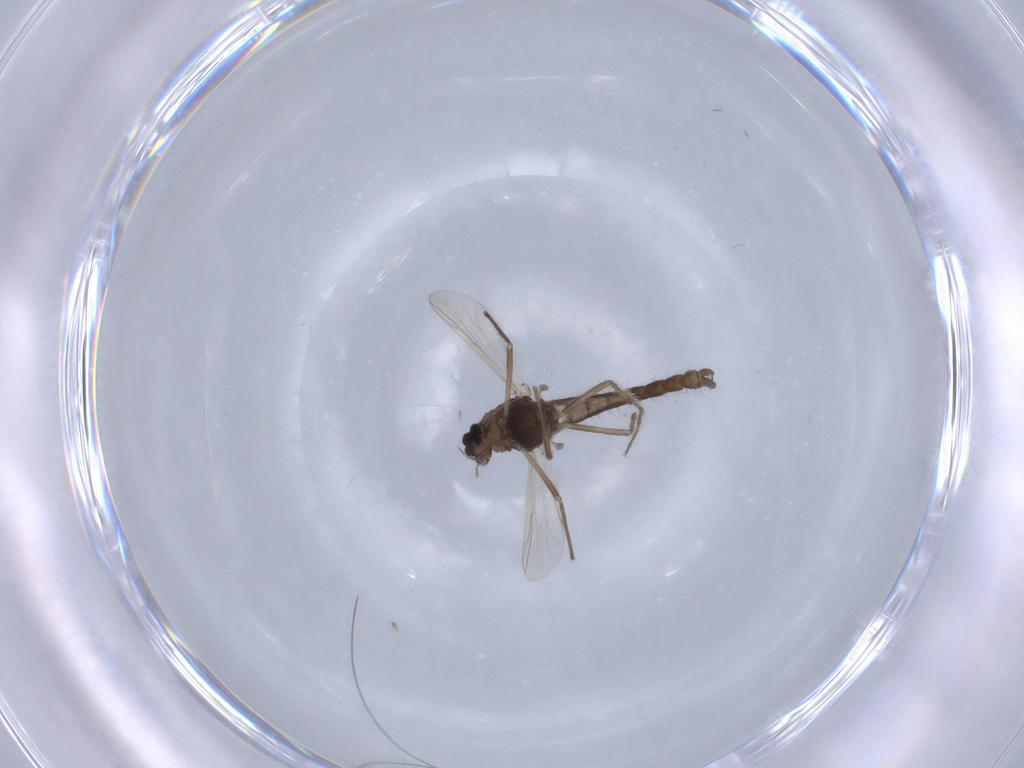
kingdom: Animalia
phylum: Arthropoda
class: Insecta
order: Diptera
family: Chironomidae
